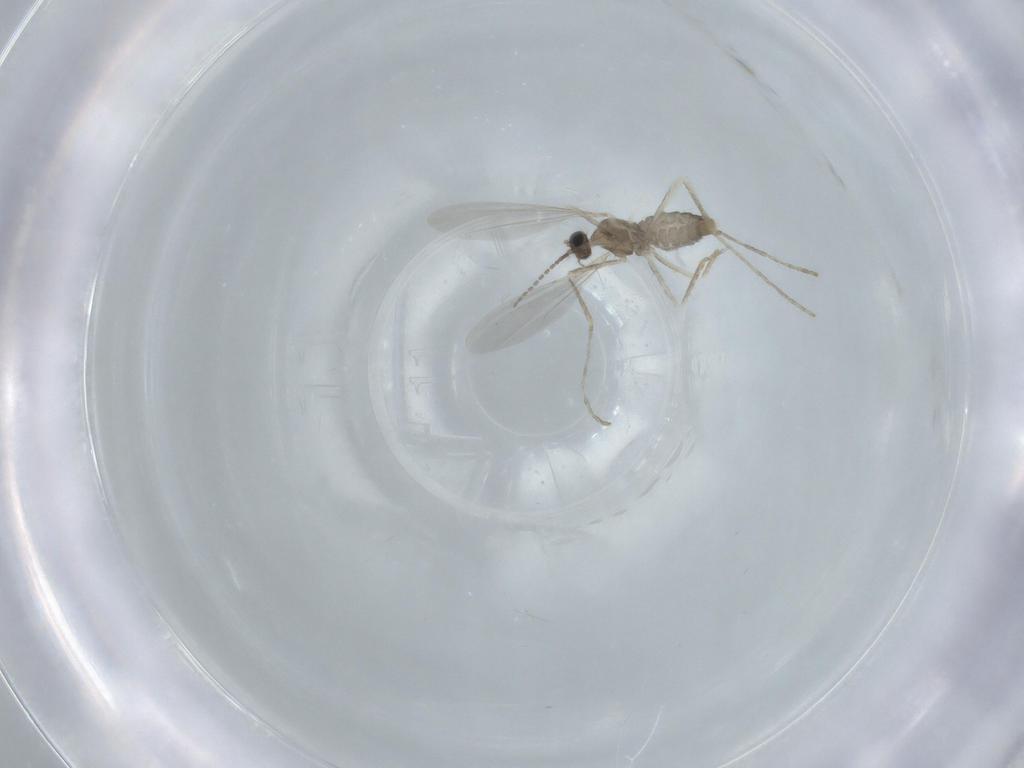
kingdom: Animalia
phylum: Arthropoda
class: Insecta
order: Diptera
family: Cecidomyiidae
